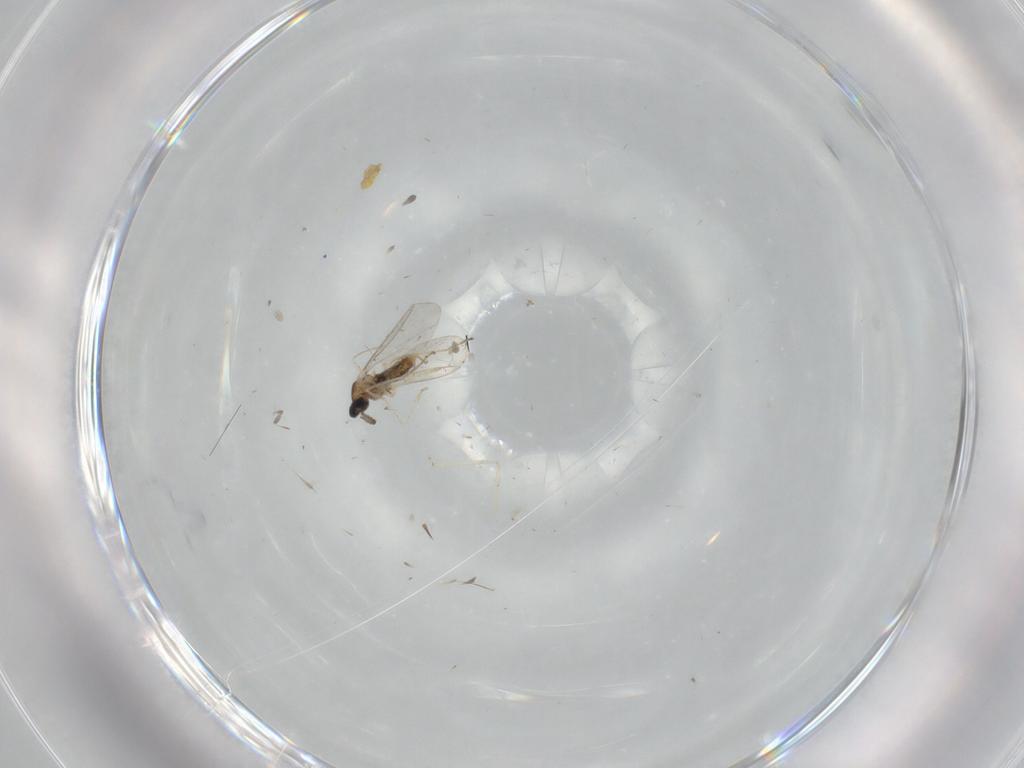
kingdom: Animalia
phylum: Arthropoda
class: Insecta
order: Diptera
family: Cecidomyiidae
